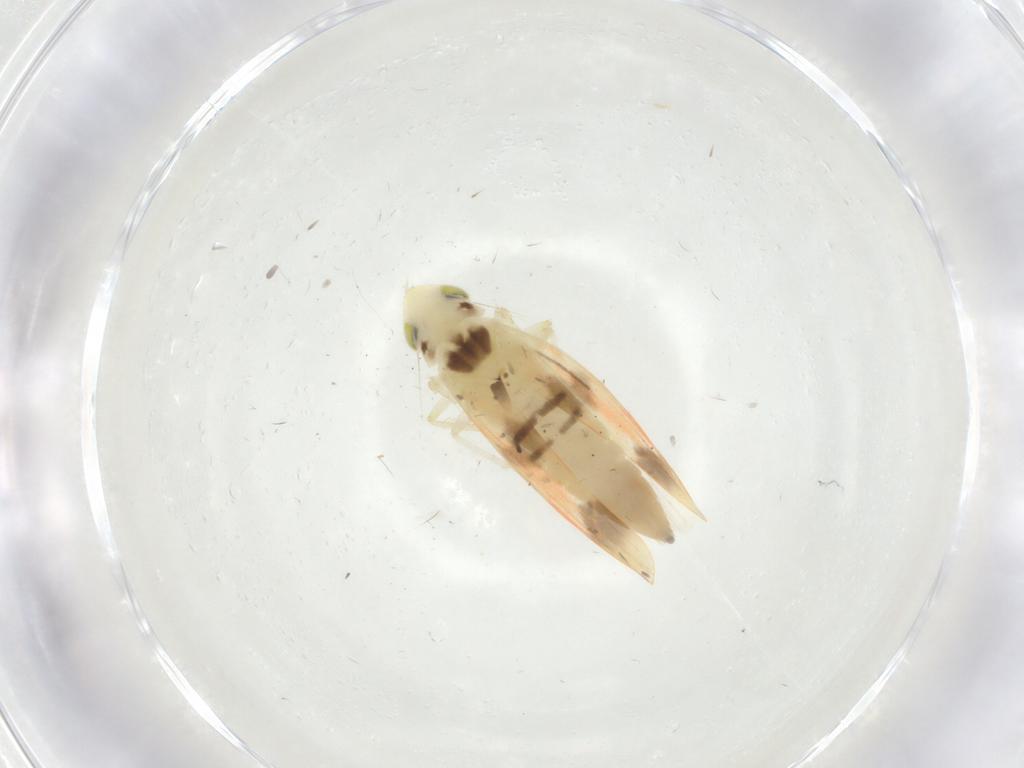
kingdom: Animalia
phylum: Arthropoda
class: Insecta
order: Hemiptera
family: Cicadellidae
